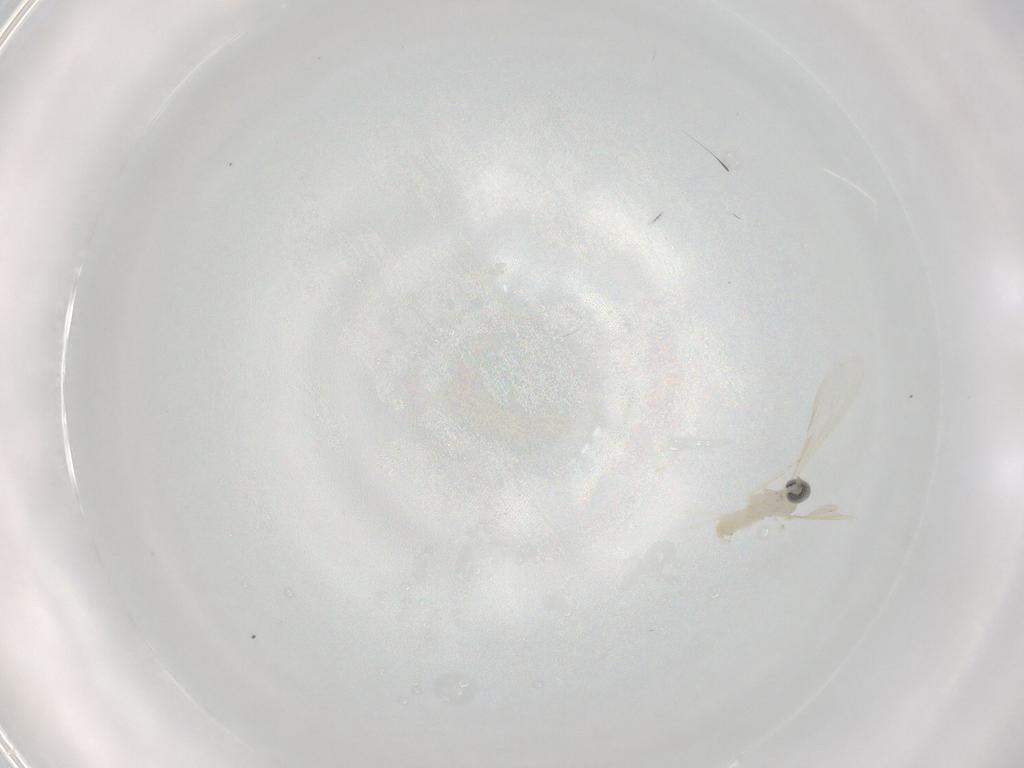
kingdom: Animalia
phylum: Arthropoda
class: Insecta
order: Diptera
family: Cecidomyiidae
